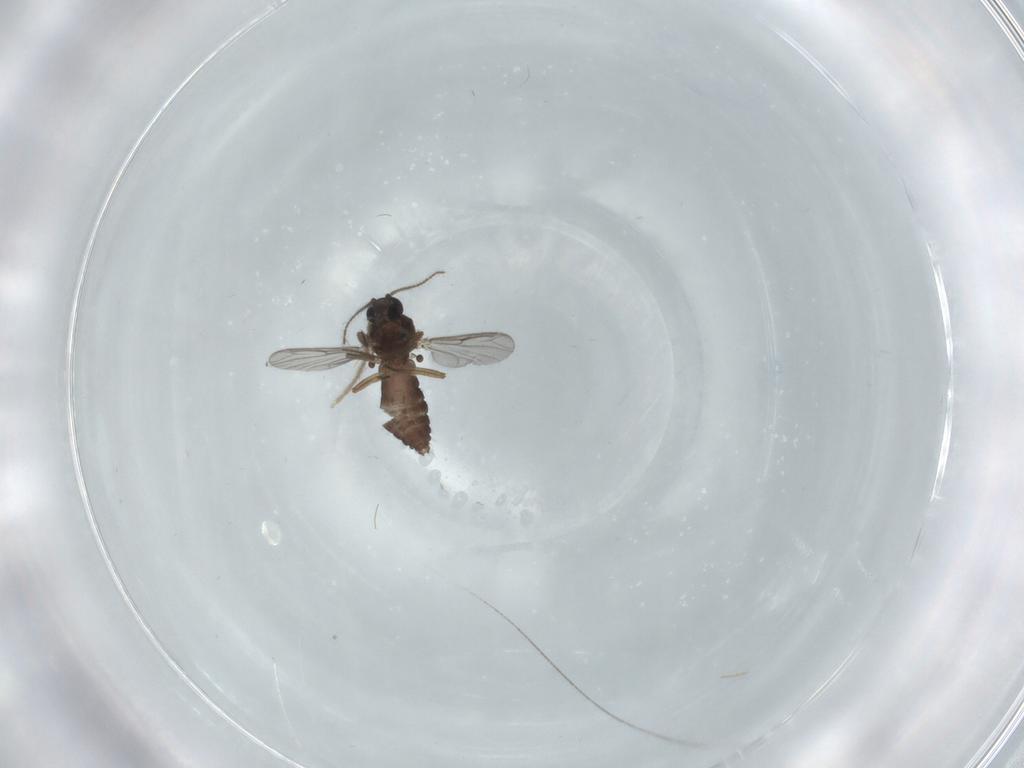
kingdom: Animalia
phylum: Arthropoda
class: Insecta
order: Diptera
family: Ceratopogonidae
